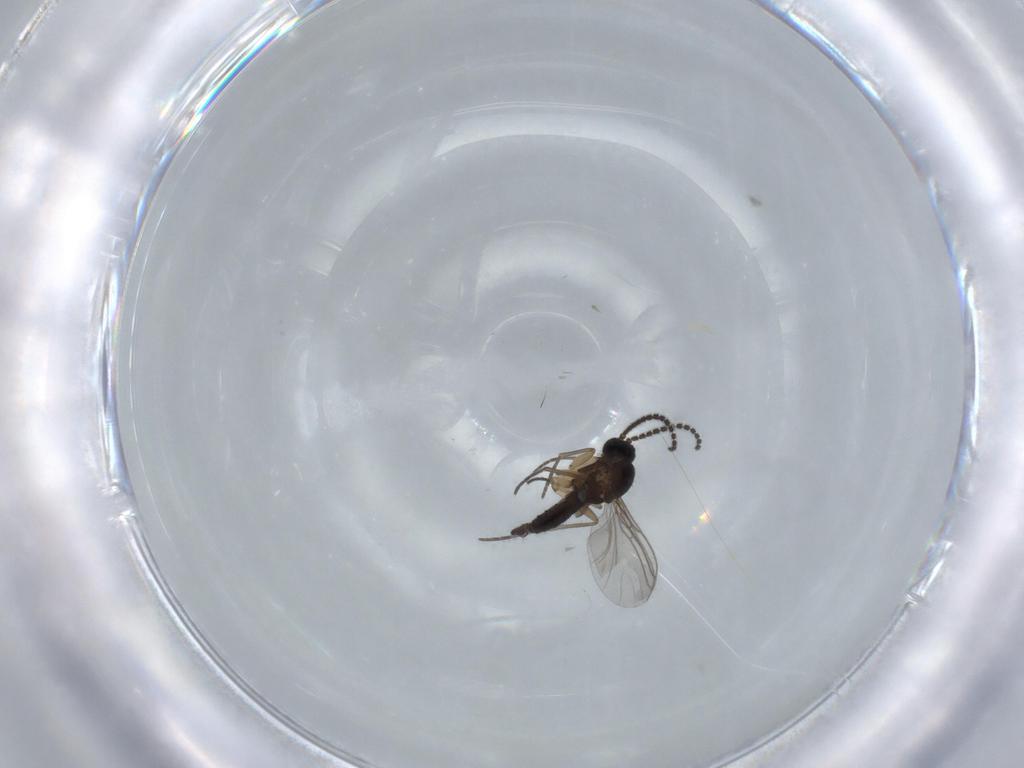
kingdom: Animalia
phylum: Arthropoda
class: Insecta
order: Diptera
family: Sciaridae
